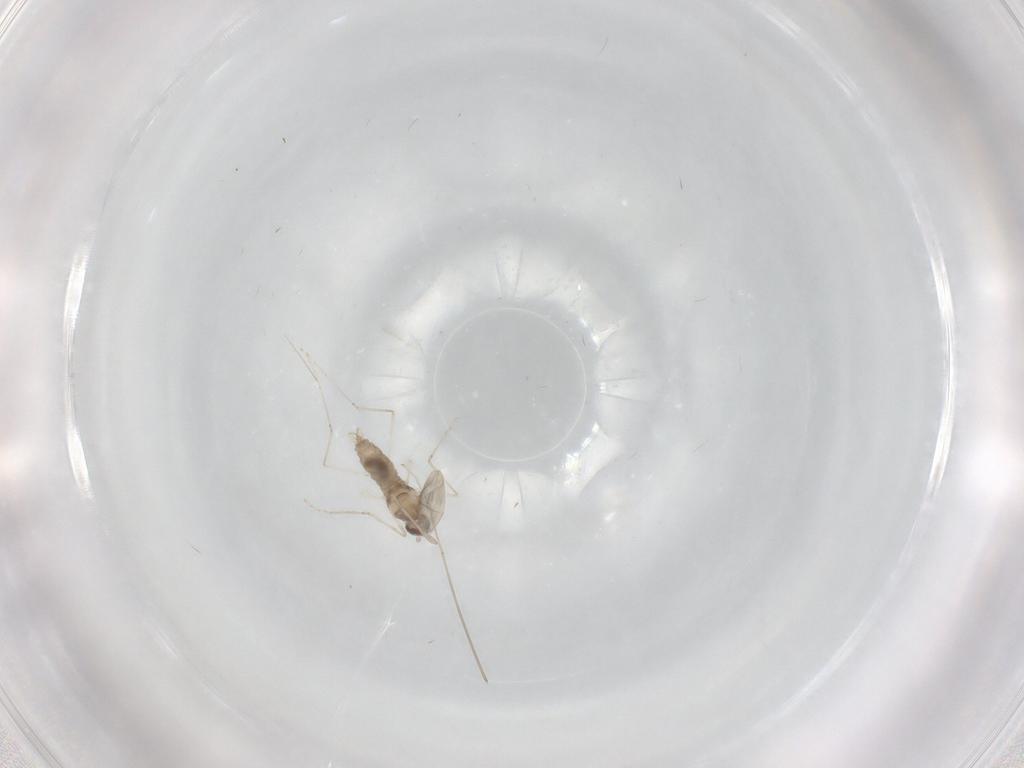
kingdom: Animalia
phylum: Arthropoda
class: Insecta
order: Diptera
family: Cecidomyiidae
